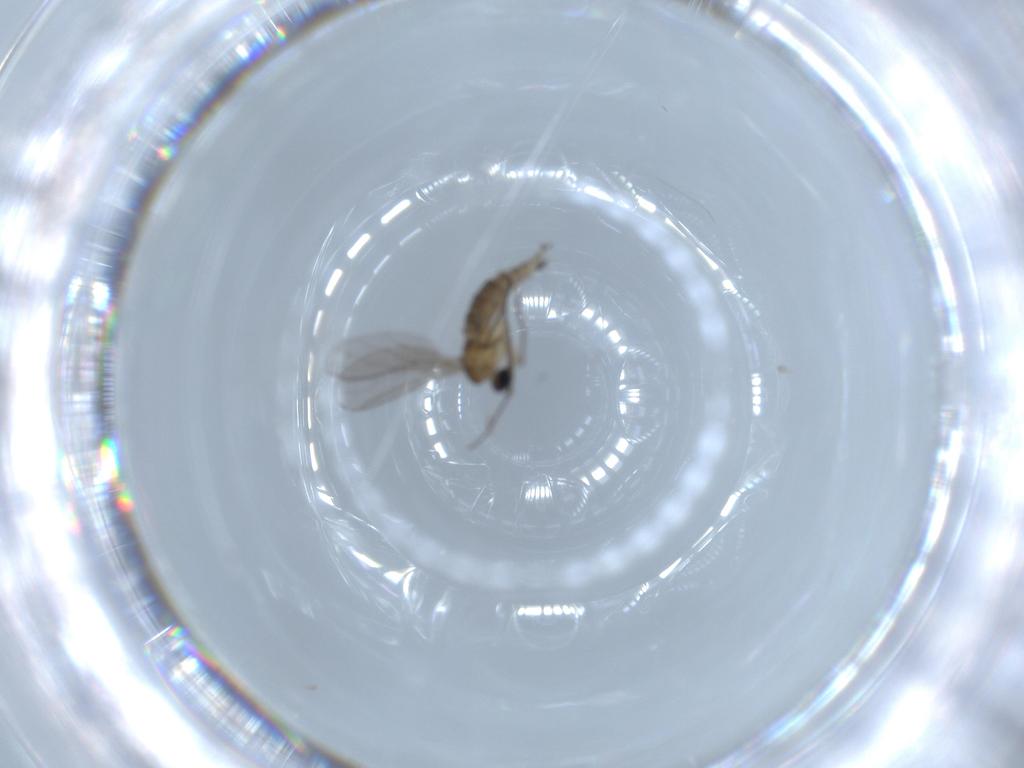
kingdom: Animalia
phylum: Arthropoda
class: Insecta
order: Diptera
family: Sciaridae
